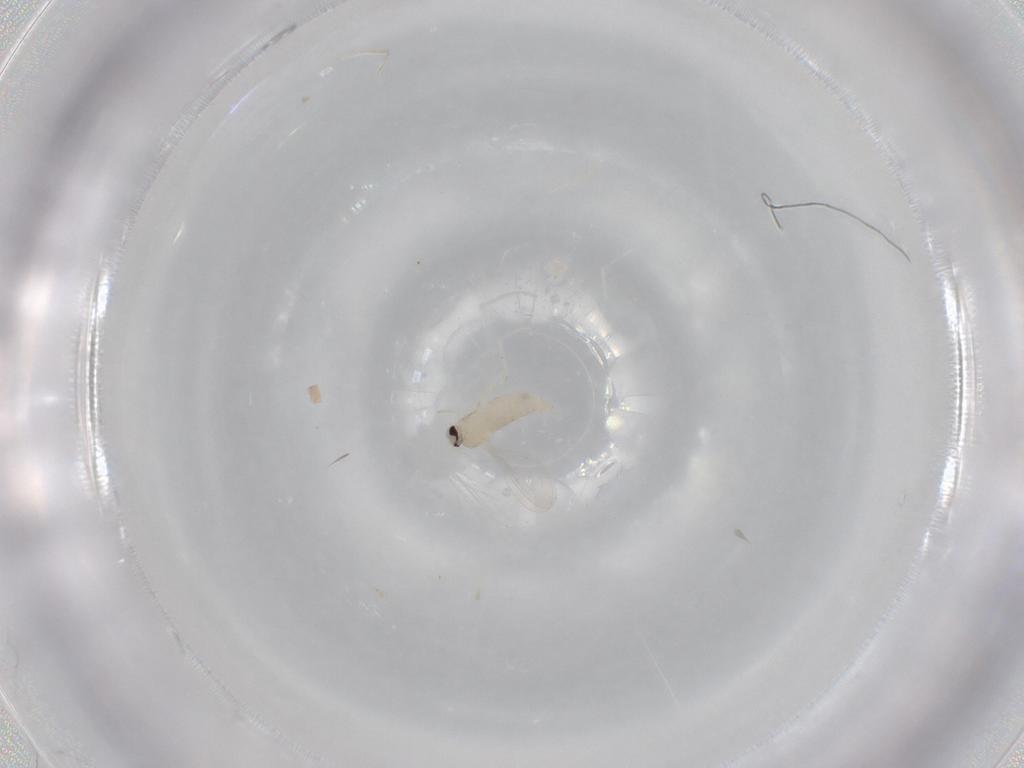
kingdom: Animalia
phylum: Arthropoda
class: Insecta
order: Diptera
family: Cecidomyiidae
